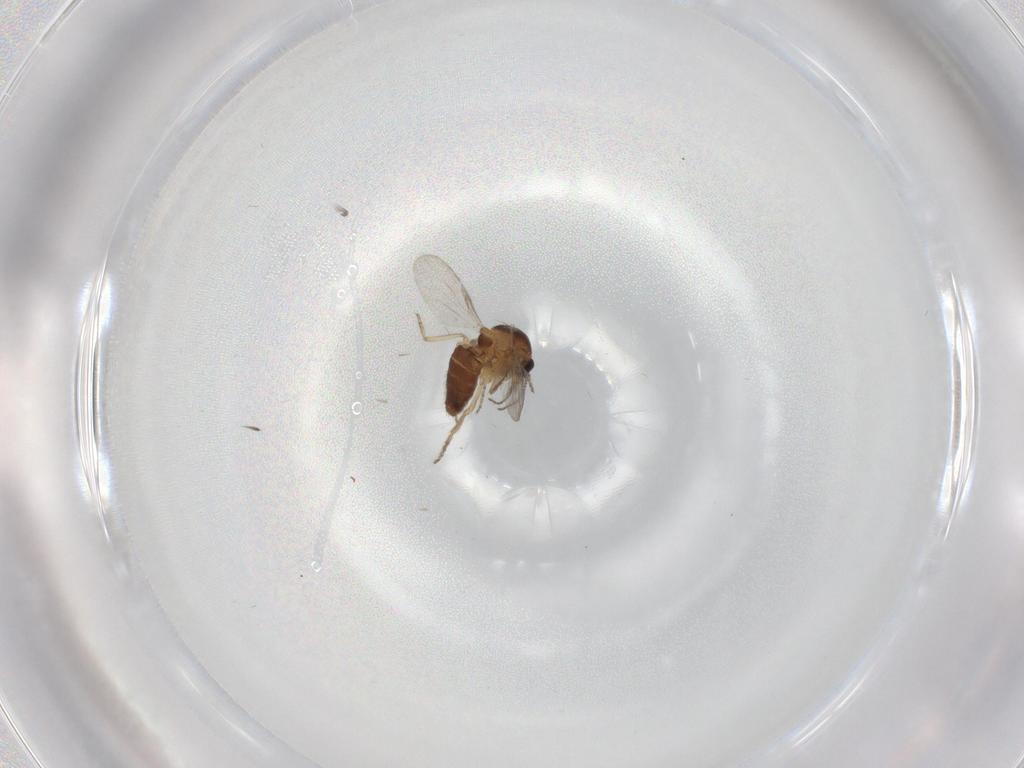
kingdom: Animalia
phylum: Arthropoda
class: Insecta
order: Diptera
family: Ceratopogonidae
